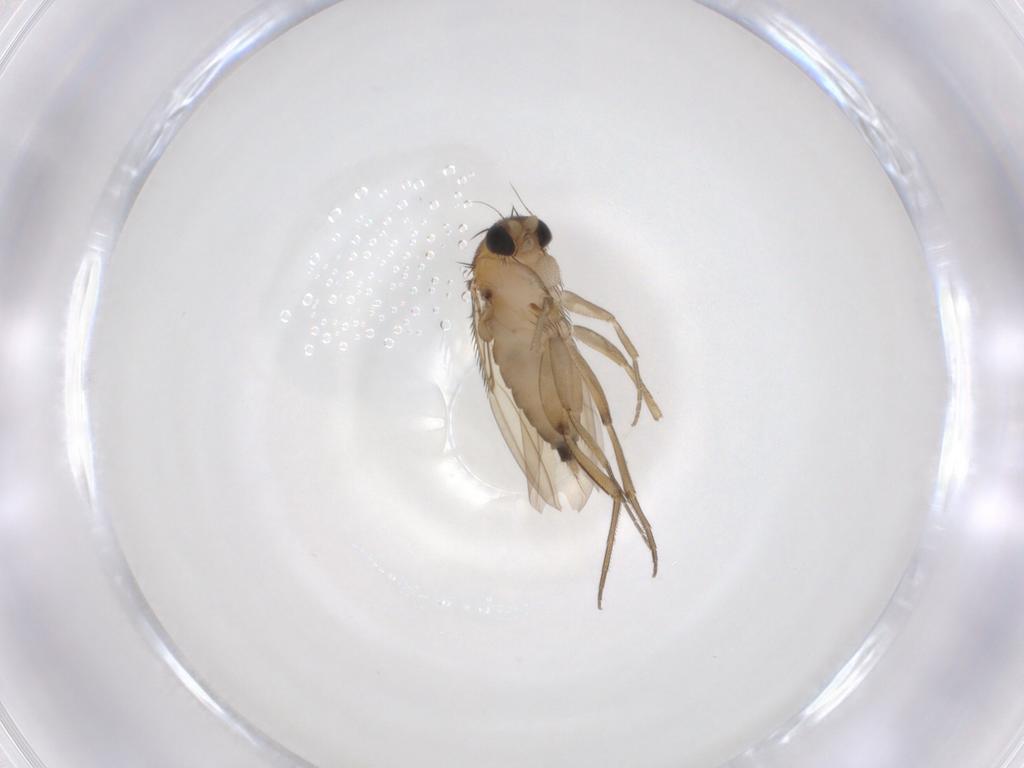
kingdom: Animalia
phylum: Arthropoda
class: Insecta
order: Diptera
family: Phoridae
